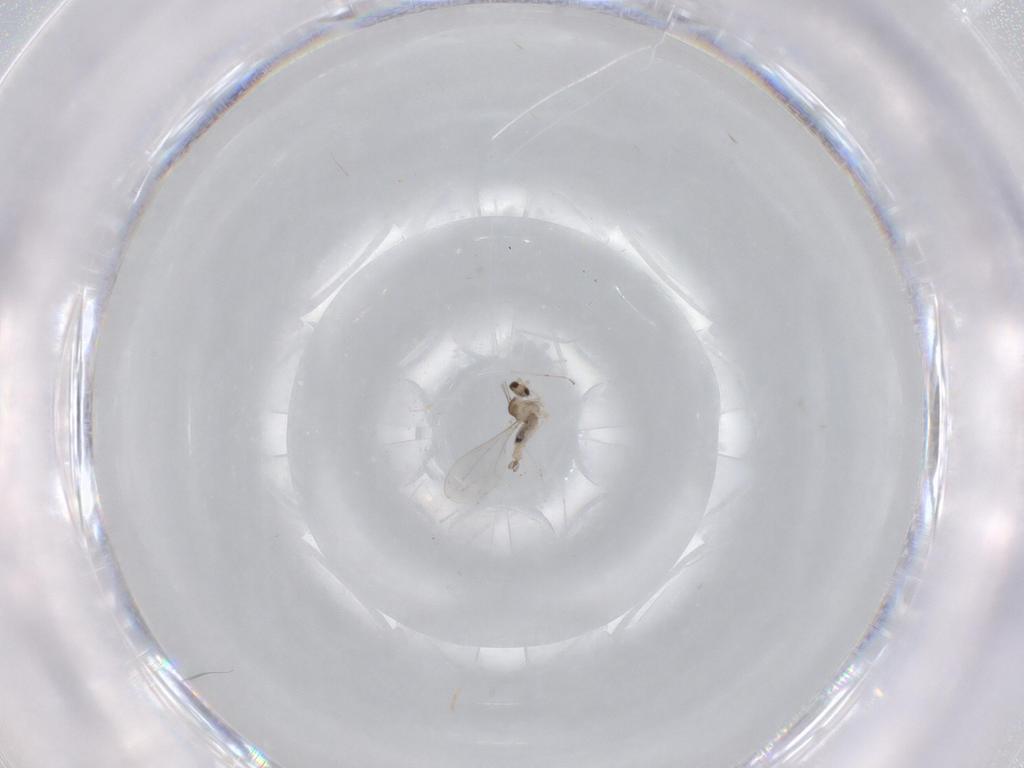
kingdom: Animalia
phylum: Arthropoda
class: Insecta
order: Diptera
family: Cecidomyiidae
